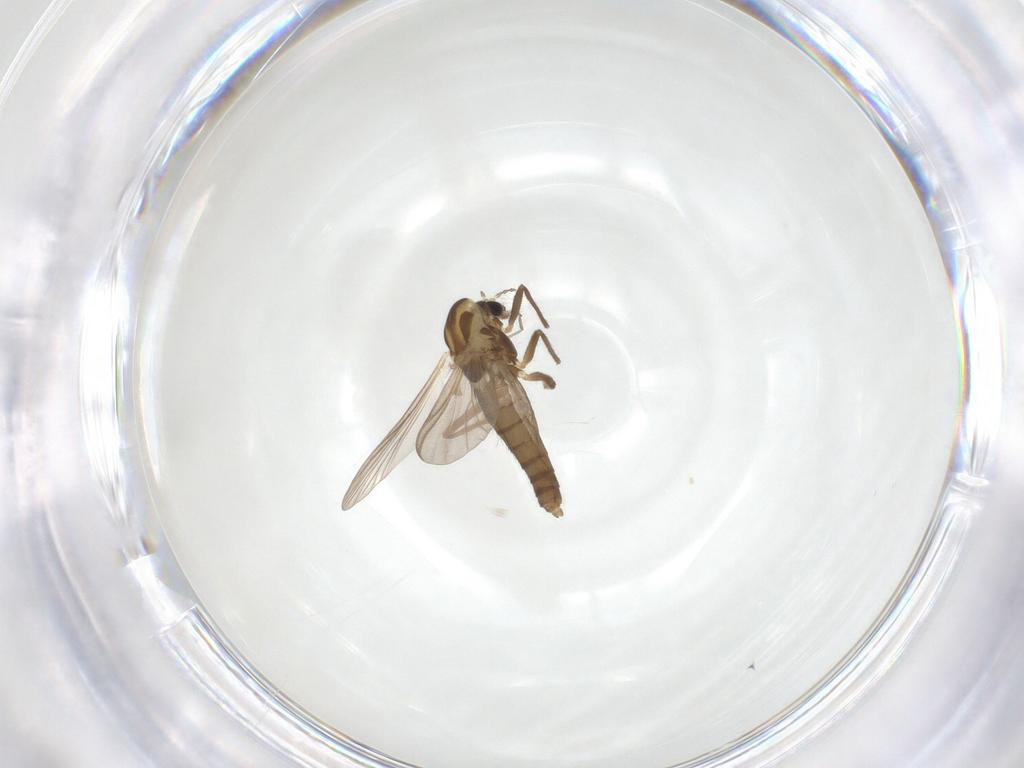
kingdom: Animalia
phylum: Arthropoda
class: Insecta
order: Diptera
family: Chironomidae
